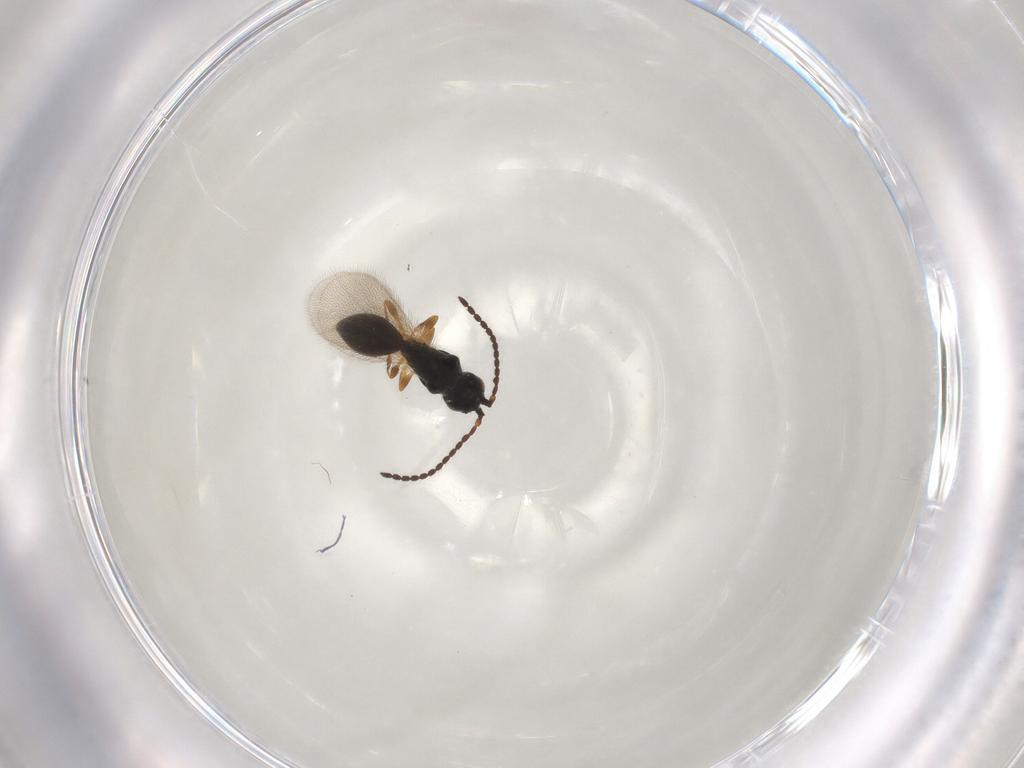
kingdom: Animalia
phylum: Arthropoda
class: Insecta
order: Hymenoptera
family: Diapriidae
